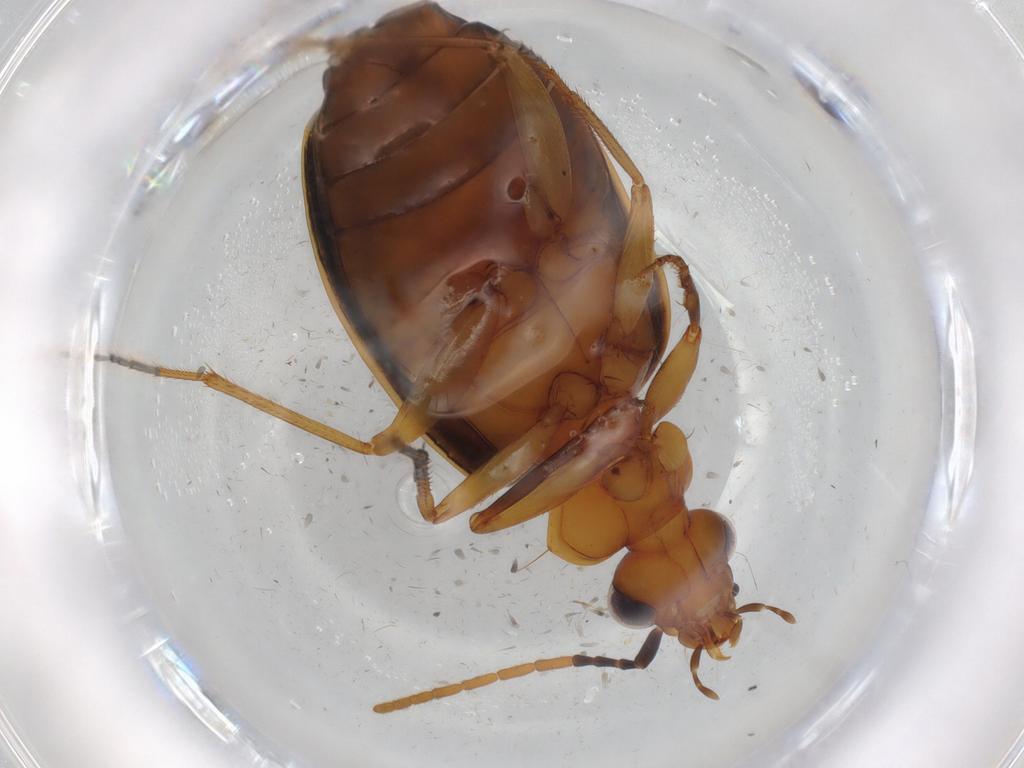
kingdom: Animalia
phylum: Arthropoda
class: Insecta
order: Coleoptera
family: Carabidae
